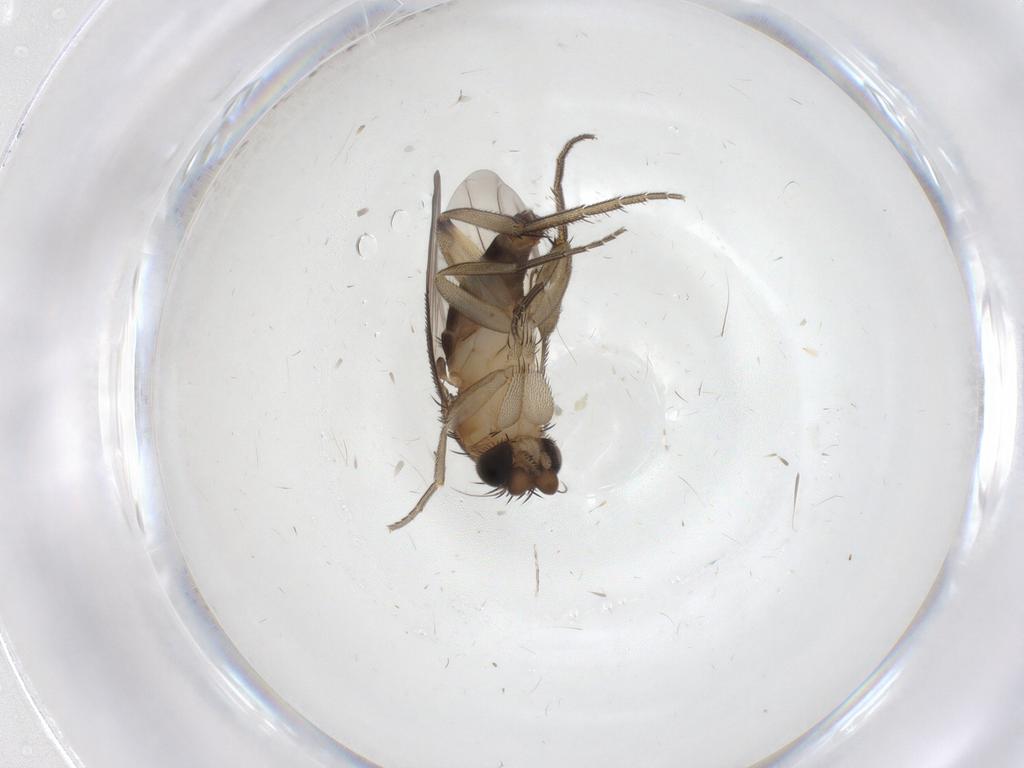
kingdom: Animalia
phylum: Arthropoda
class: Insecta
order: Diptera
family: Phoridae
